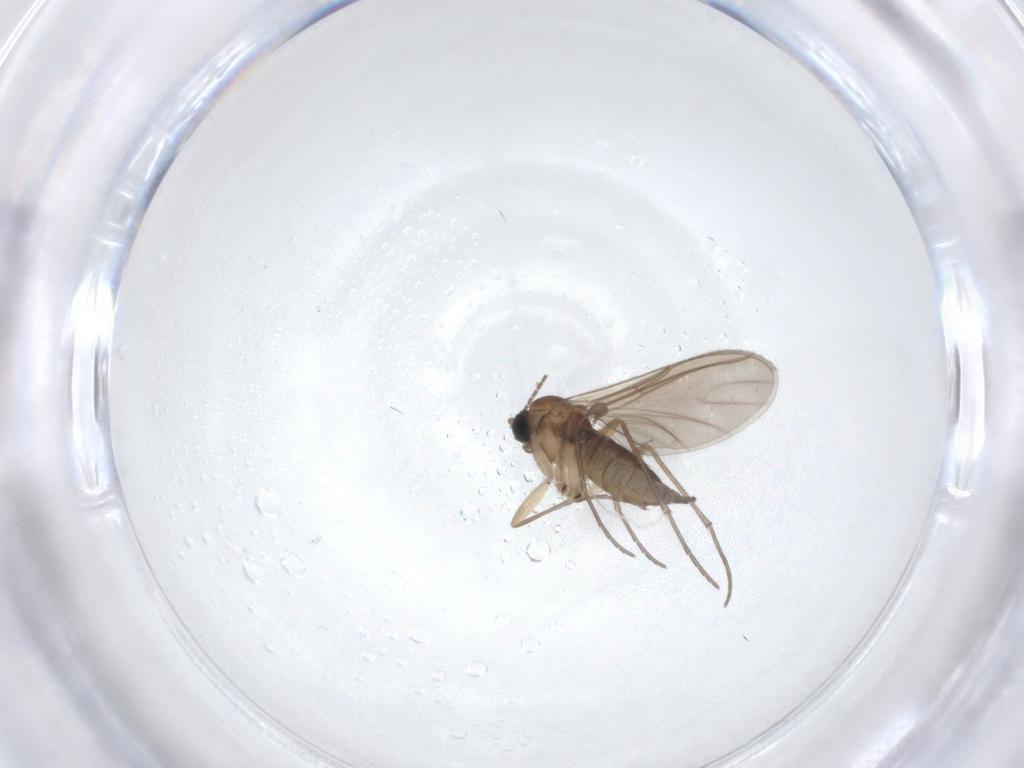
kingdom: Animalia
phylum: Arthropoda
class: Insecta
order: Diptera
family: Sciaridae
